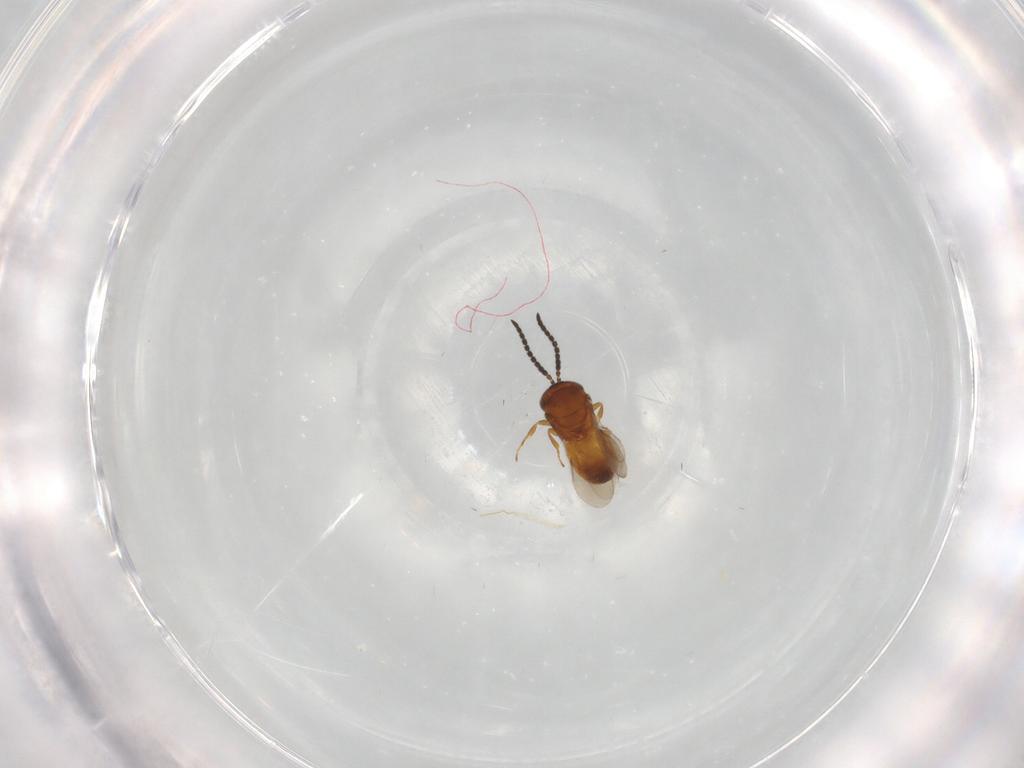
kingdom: Animalia
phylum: Arthropoda
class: Insecta
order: Hymenoptera
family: Scelionidae
